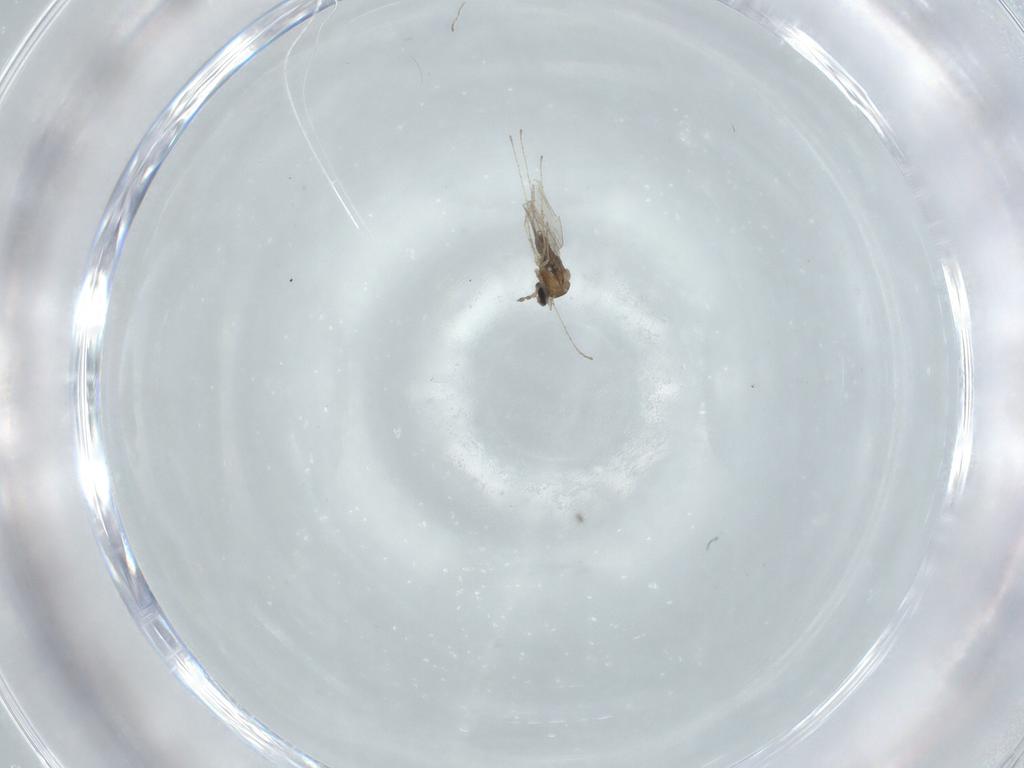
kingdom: Animalia
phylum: Arthropoda
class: Insecta
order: Diptera
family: Cecidomyiidae
